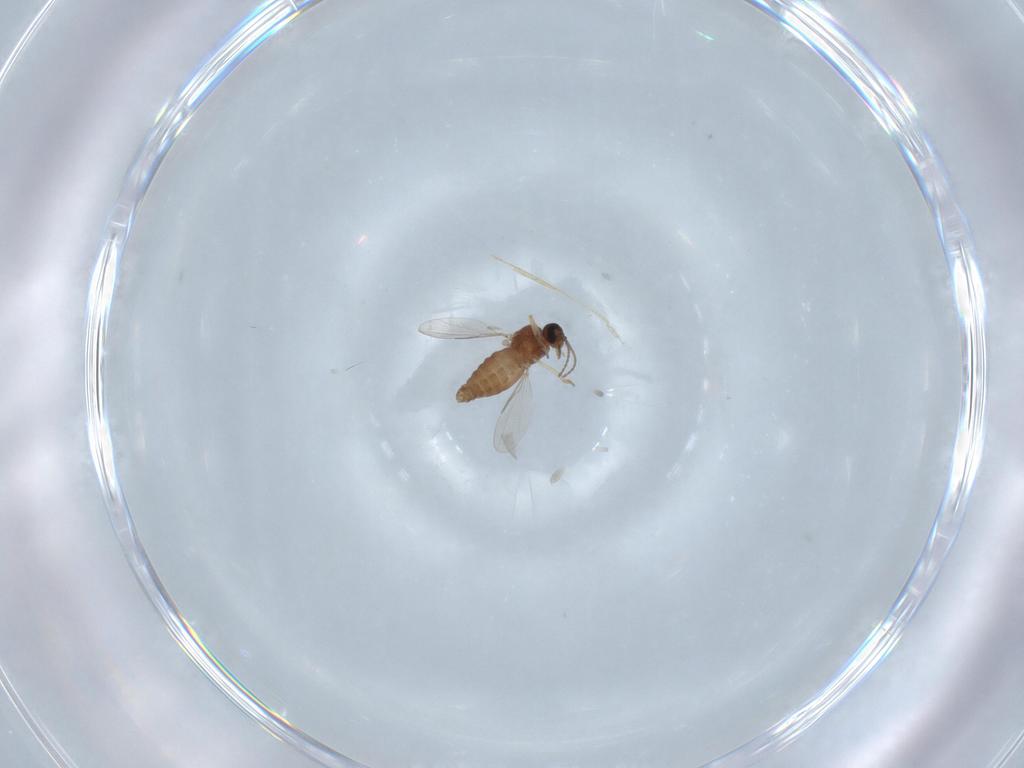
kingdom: Animalia
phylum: Arthropoda
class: Insecta
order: Diptera
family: Ceratopogonidae
